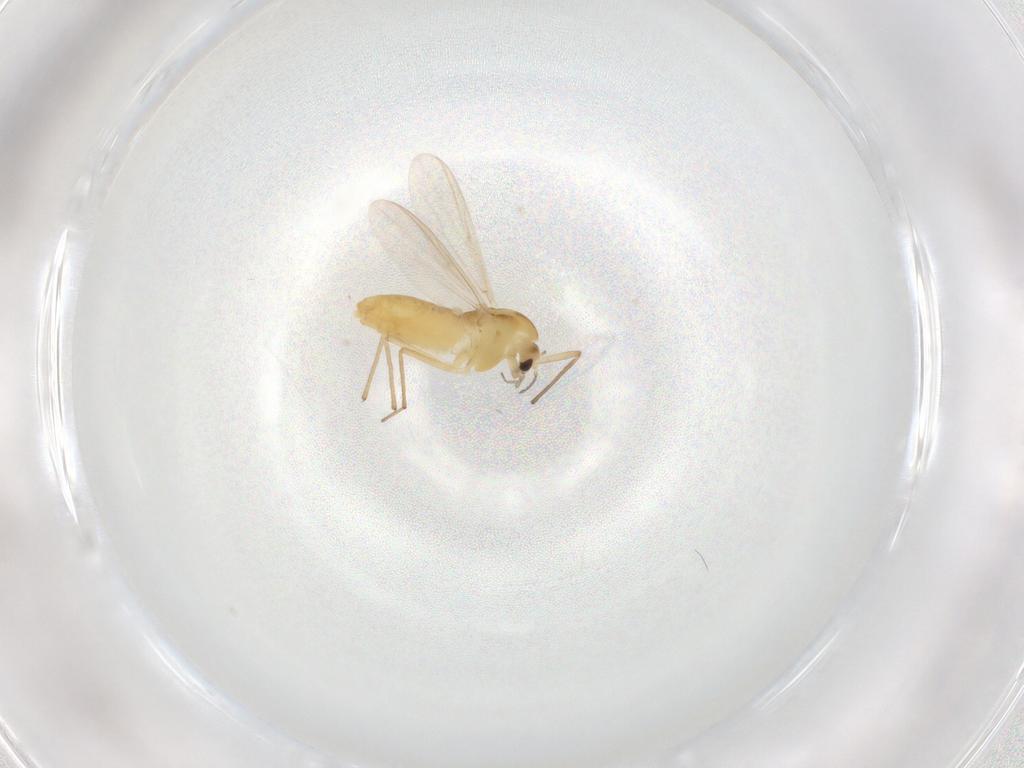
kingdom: Animalia
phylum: Arthropoda
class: Insecta
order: Diptera
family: Chironomidae
